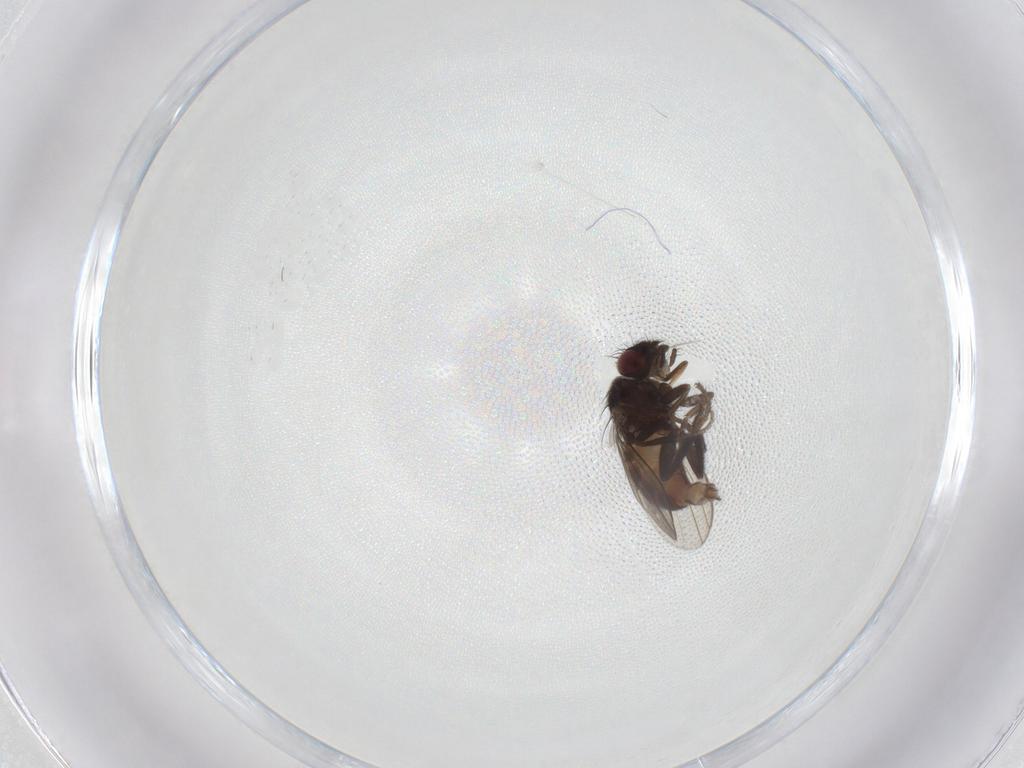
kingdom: Animalia
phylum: Arthropoda
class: Insecta
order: Diptera
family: Milichiidae
